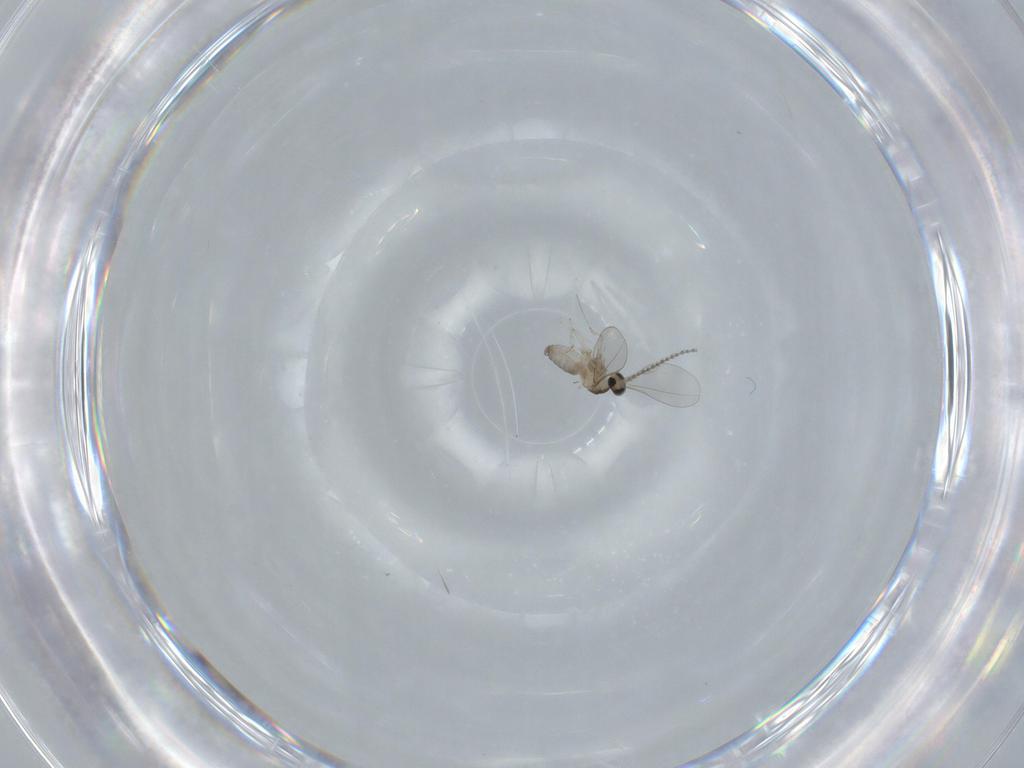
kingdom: Animalia
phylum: Arthropoda
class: Insecta
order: Diptera
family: Cecidomyiidae
